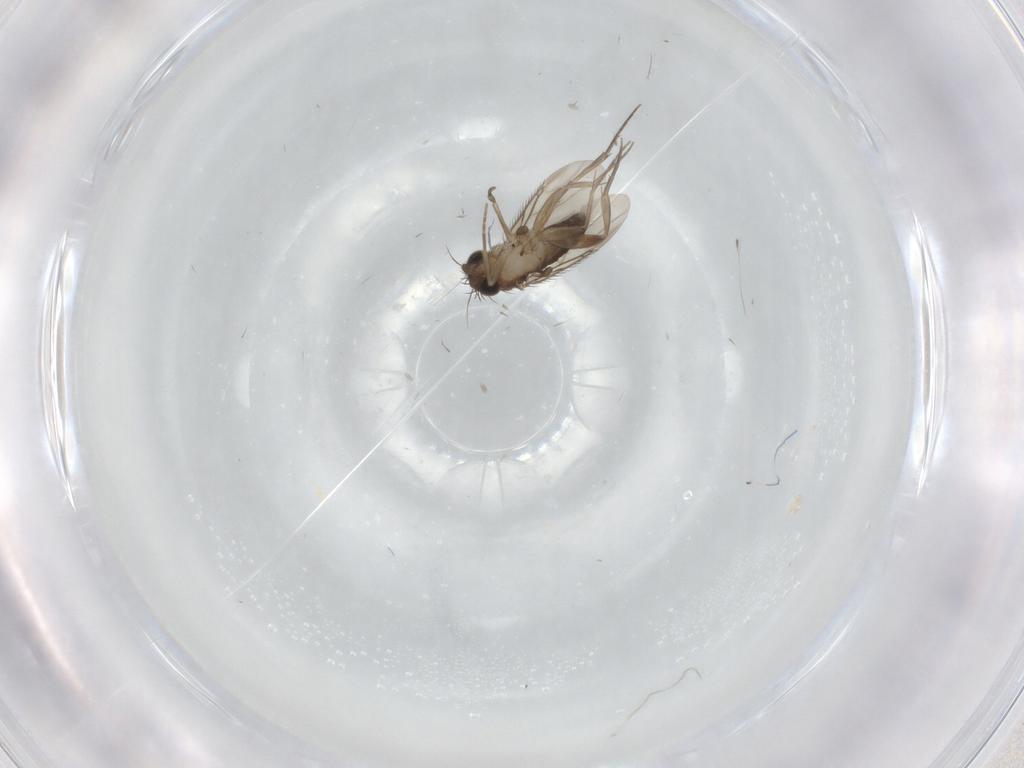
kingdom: Animalia
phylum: Arthropoda
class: Insecta
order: Diptera
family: Phoridae
